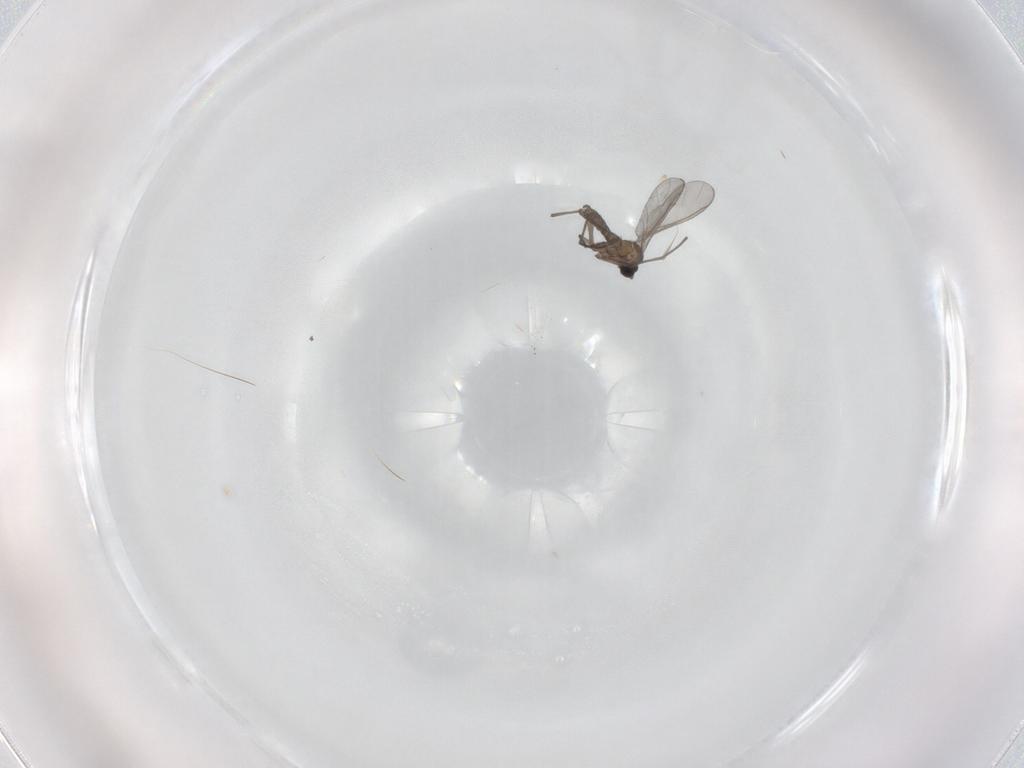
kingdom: Animalia
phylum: Arthropoda
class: Insecta
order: Diptera
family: Sciaridae
